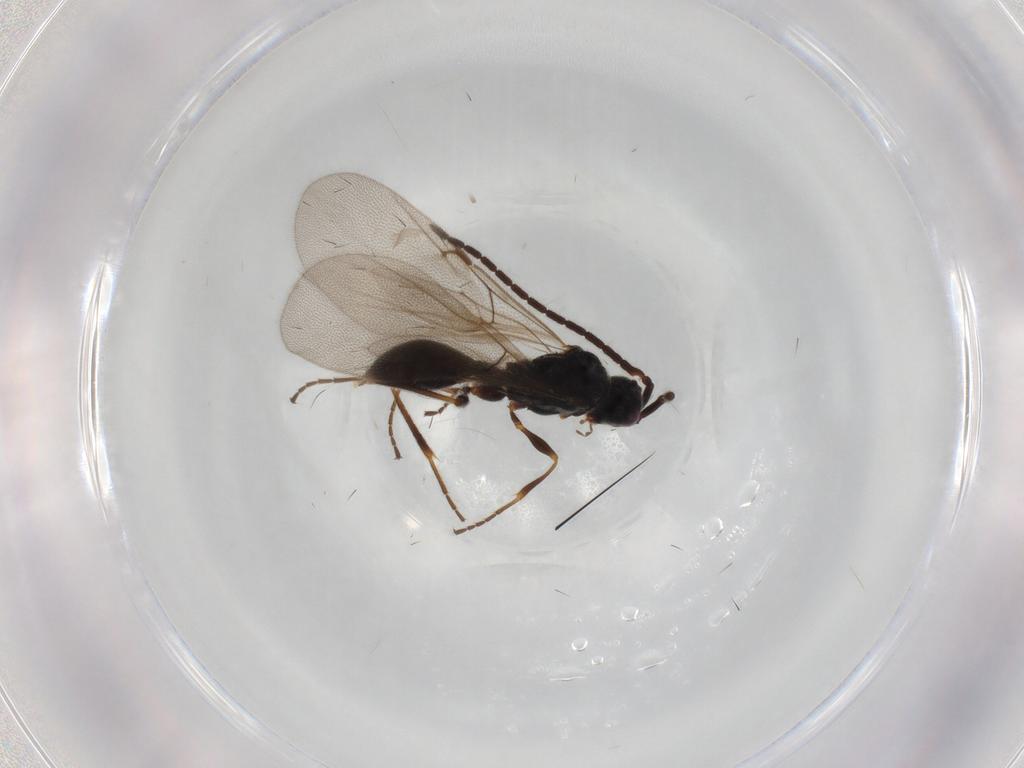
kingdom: Animalia
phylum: Arthropoda
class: Insecta
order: Hymenoptera
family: Diapriidae
